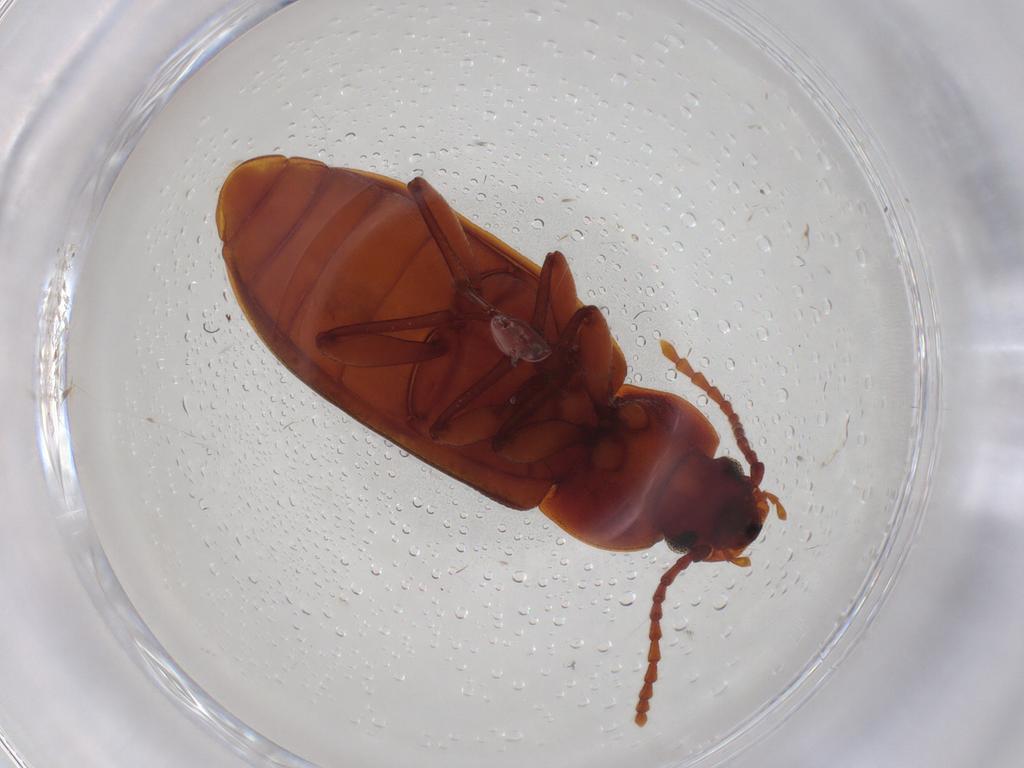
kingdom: Animalia
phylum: Arthropoda
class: Insecta
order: Coleoptera
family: Tenebrionidae
